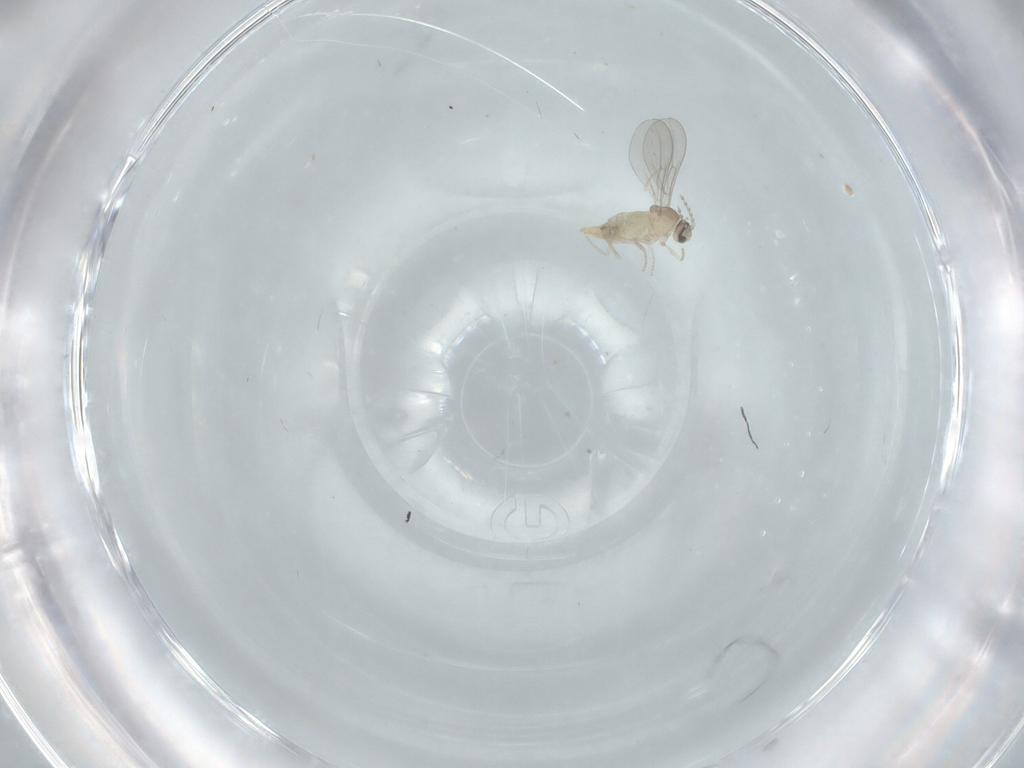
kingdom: Animalia
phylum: Arthropoda
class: Insecta
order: Diptera
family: Cecidomyiidae
